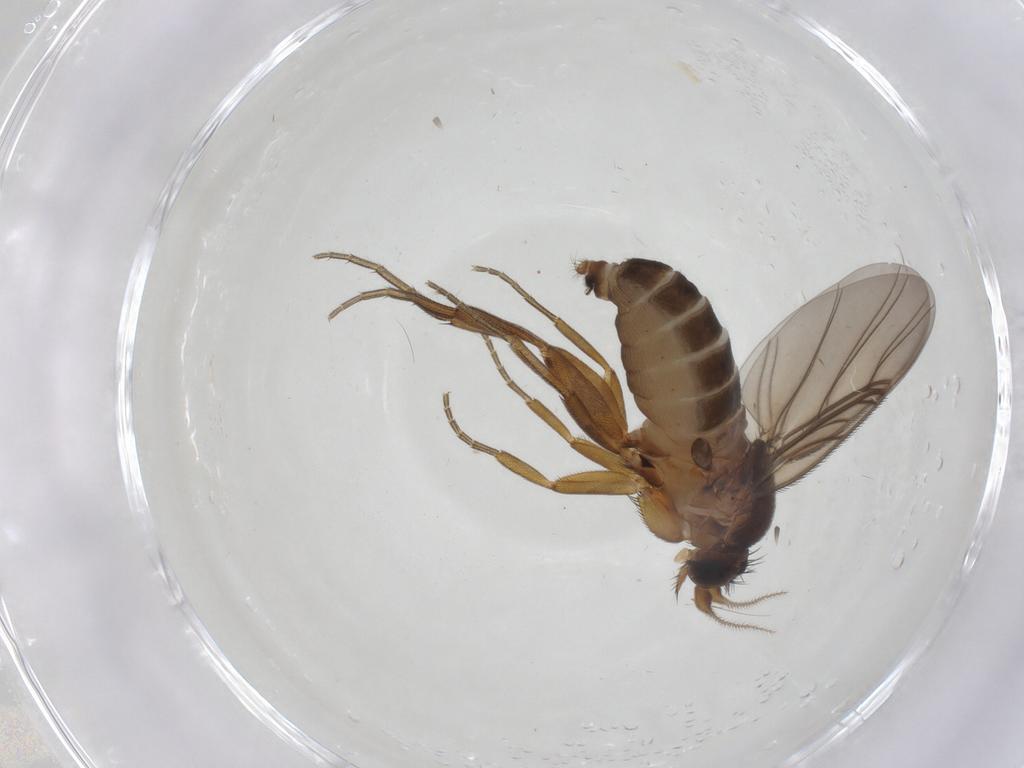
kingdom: Animalia
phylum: Arthropoda
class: Insecta
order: Diptera
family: Phoridae
